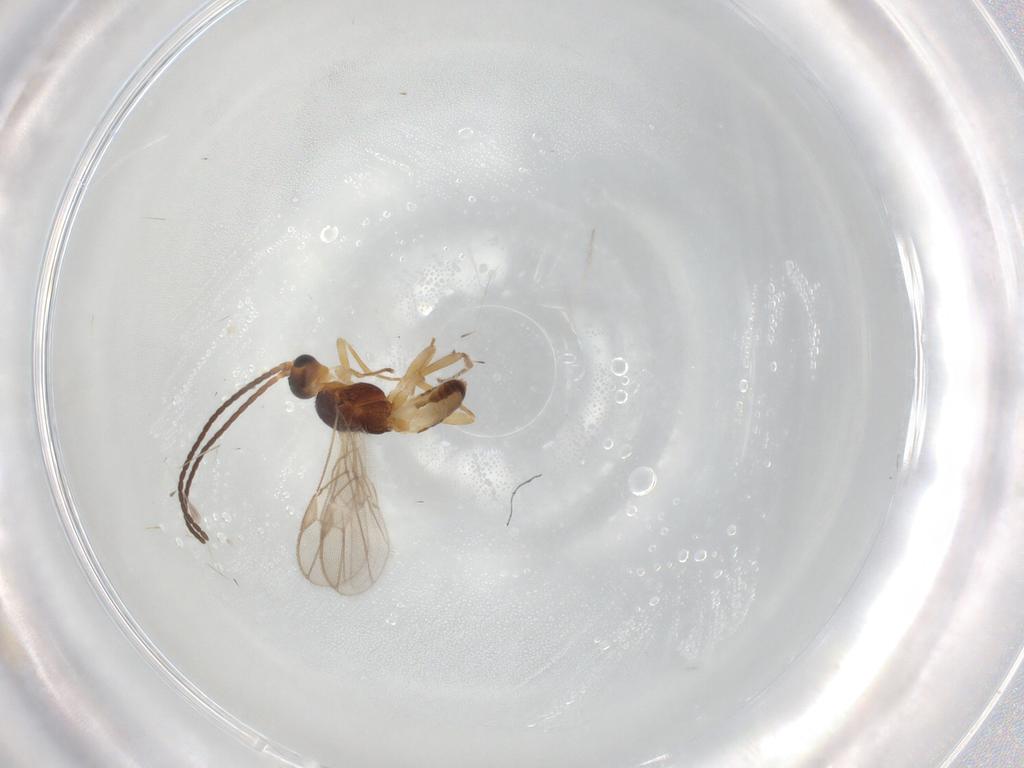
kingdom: Animalia
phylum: Arthropoda
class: Insecta
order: Hymenoptera
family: Braconidae
